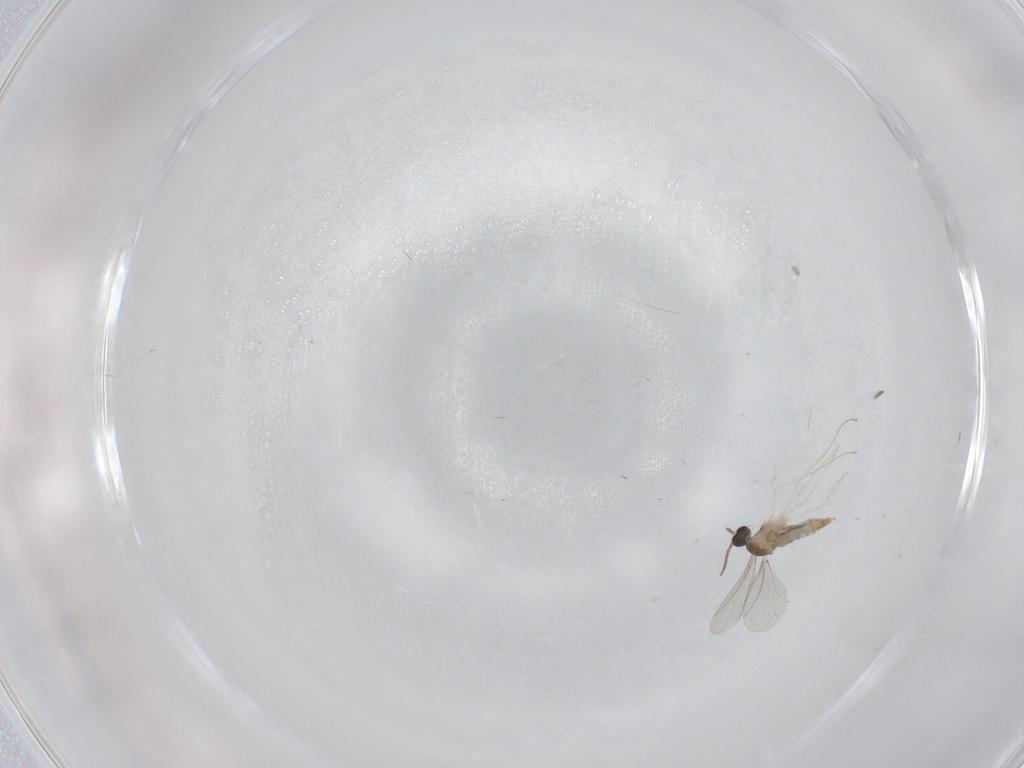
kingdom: Animalia
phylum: Arthropoda
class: Insecta
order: Diptera
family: Cecidomyiidae
